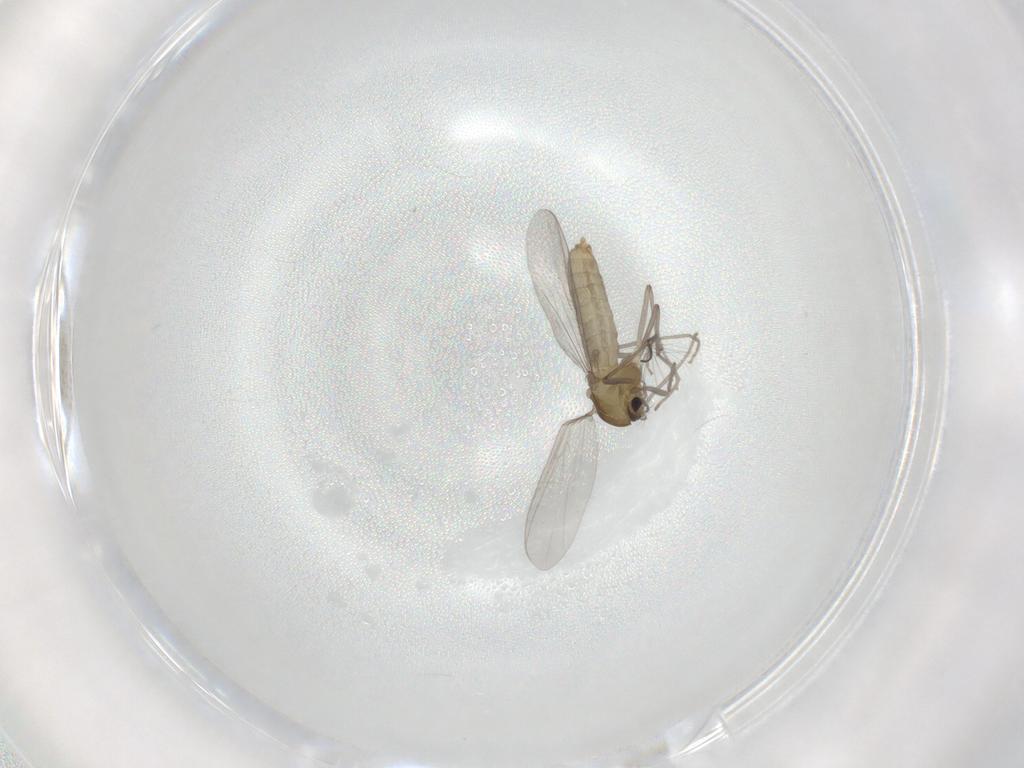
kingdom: Animalia
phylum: Arthropoda
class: Insecta
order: Diptera
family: Chironomidae
